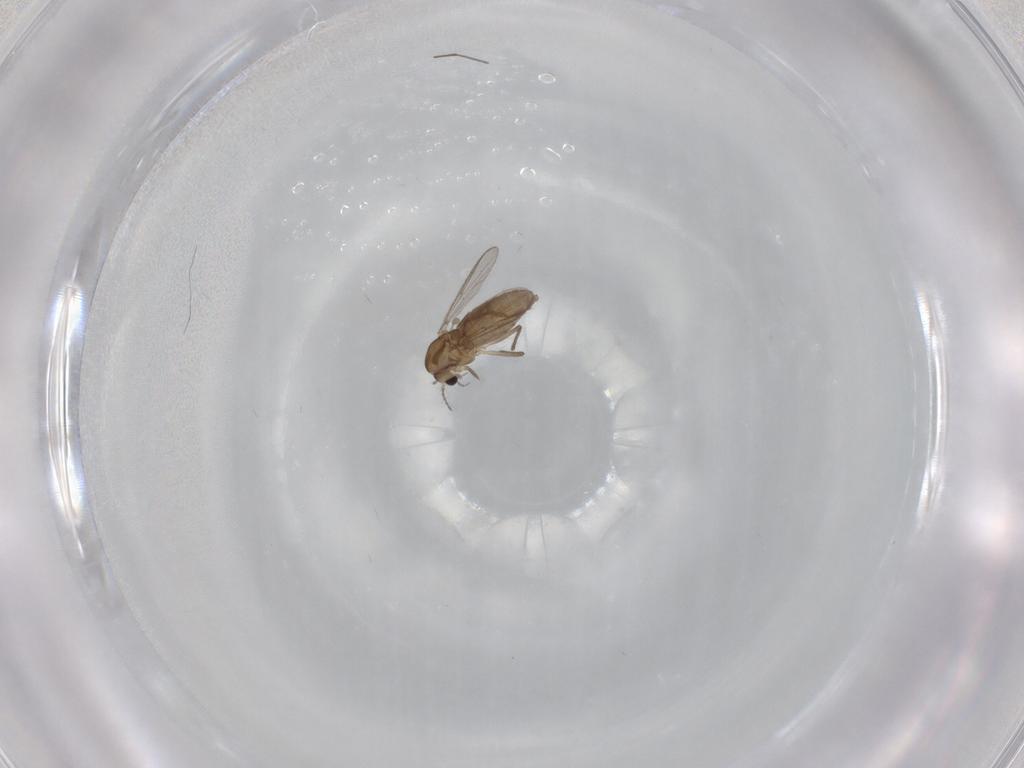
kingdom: Animalia
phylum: Arthropoda
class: Insecta
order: Diptera
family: Chironomidae
